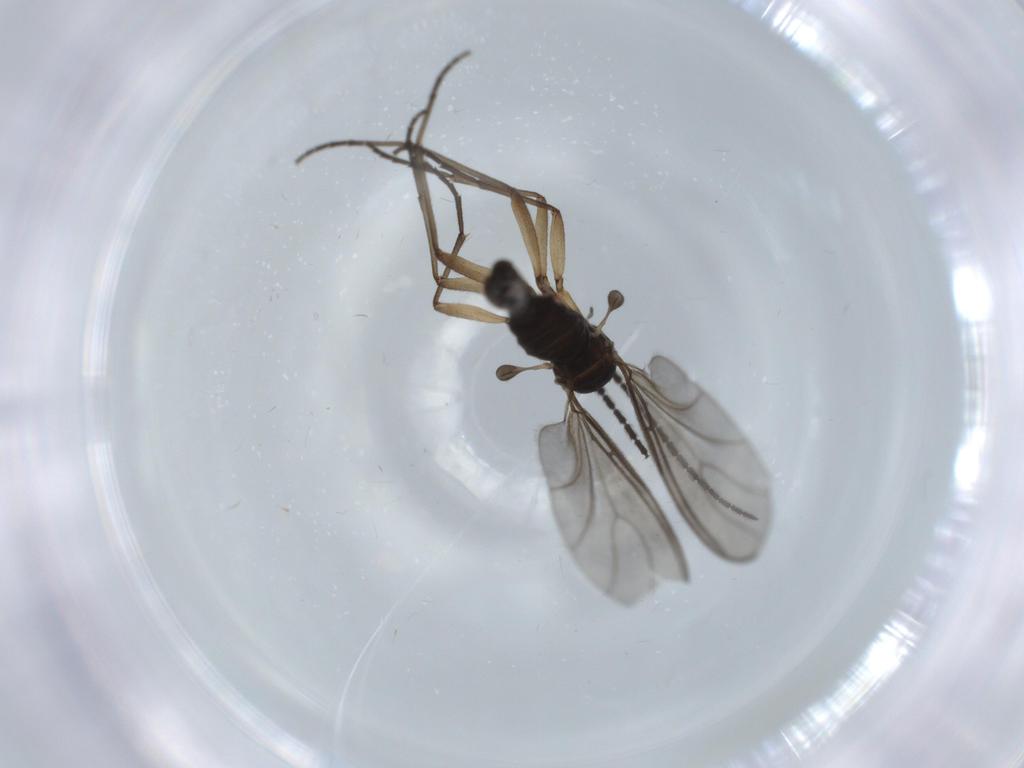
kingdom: Animalia
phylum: Arthropoda
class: Insecta
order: Diptera
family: Sciaridae
